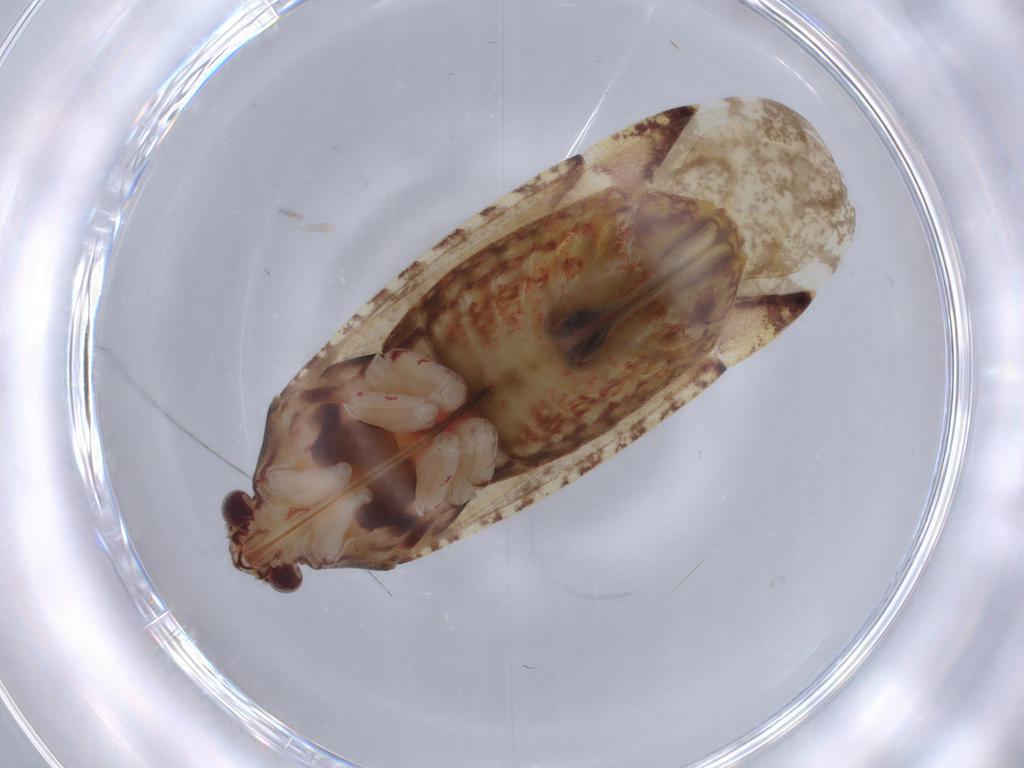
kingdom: Animalia
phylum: Arthropoda
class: Insecta
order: Hemiptera
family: Miridae
